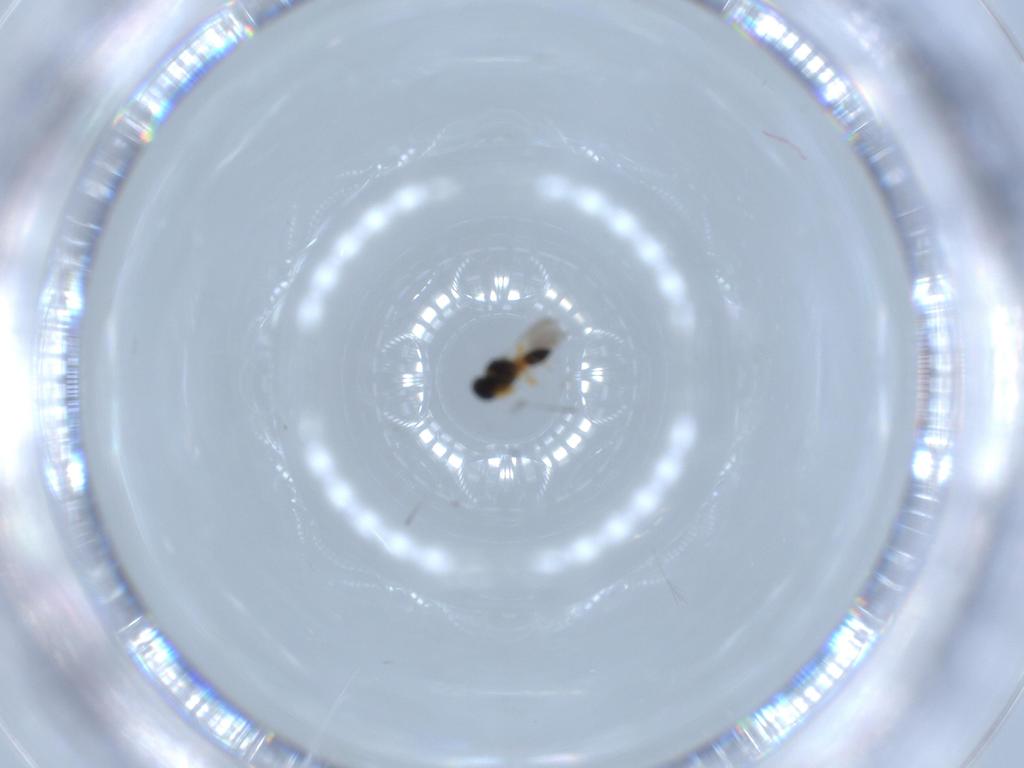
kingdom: Animalia
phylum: Arthropoda
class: Insecta
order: Hymenoptera
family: Platygastridae
